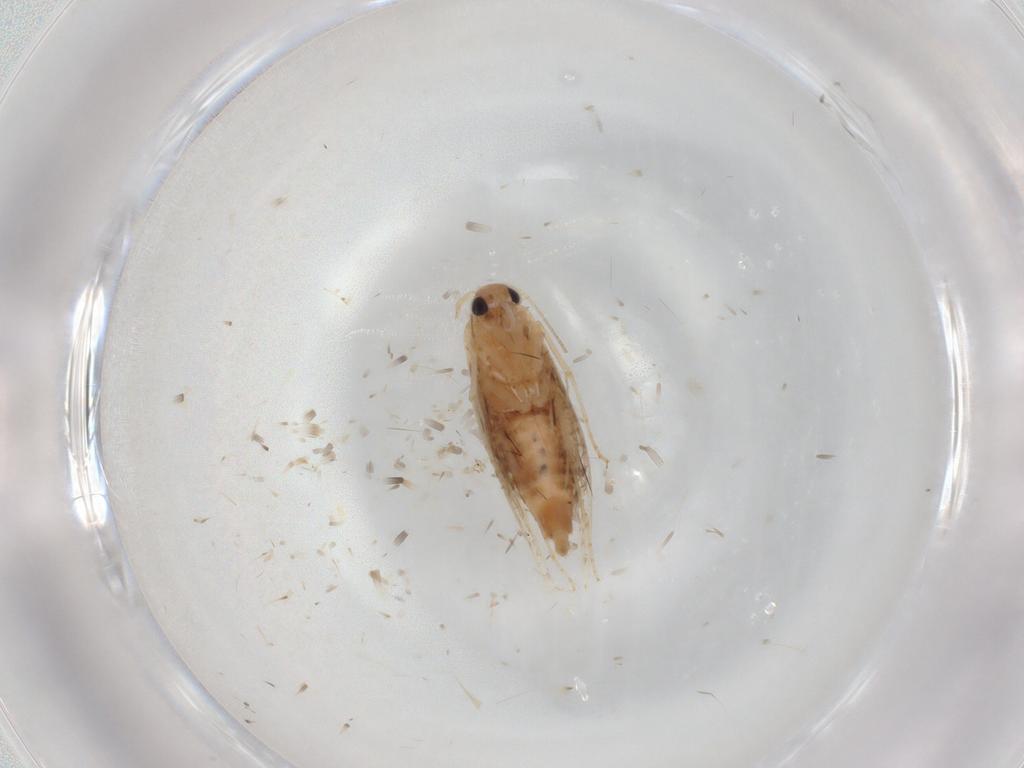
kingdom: Animalia
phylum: Arthropoda
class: Insecta
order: Lepidoptera
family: Bucculatricidae
